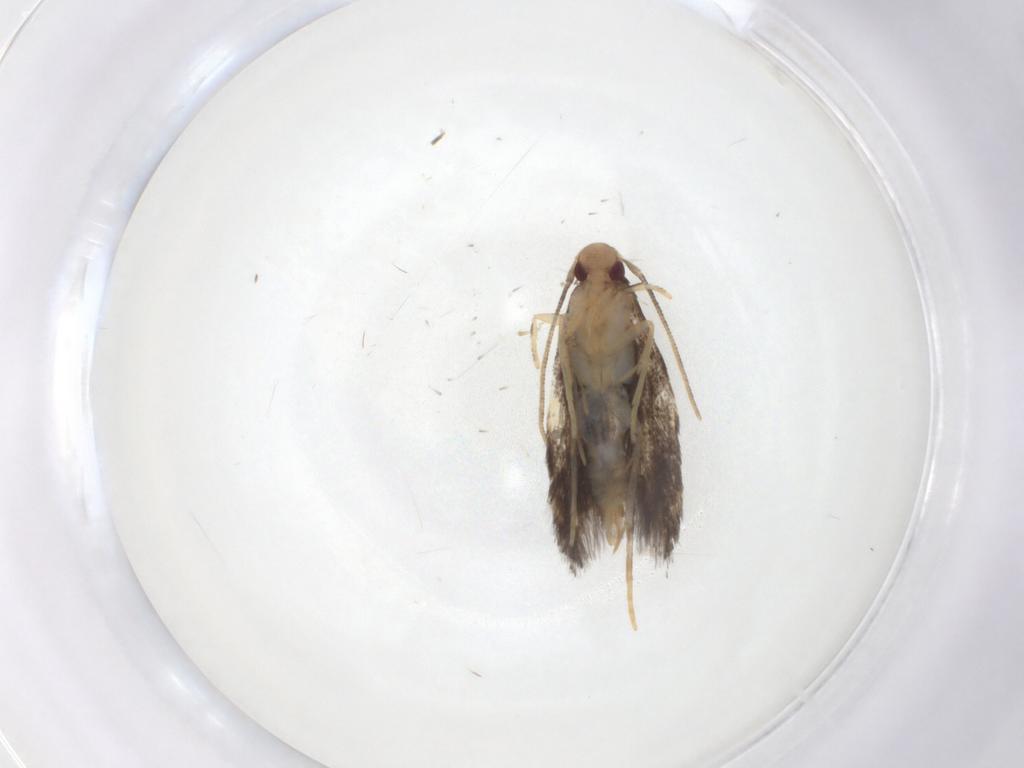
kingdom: Animalia
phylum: Arthropoda
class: Insecta
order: Lepidoptera
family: Gelechiidae
